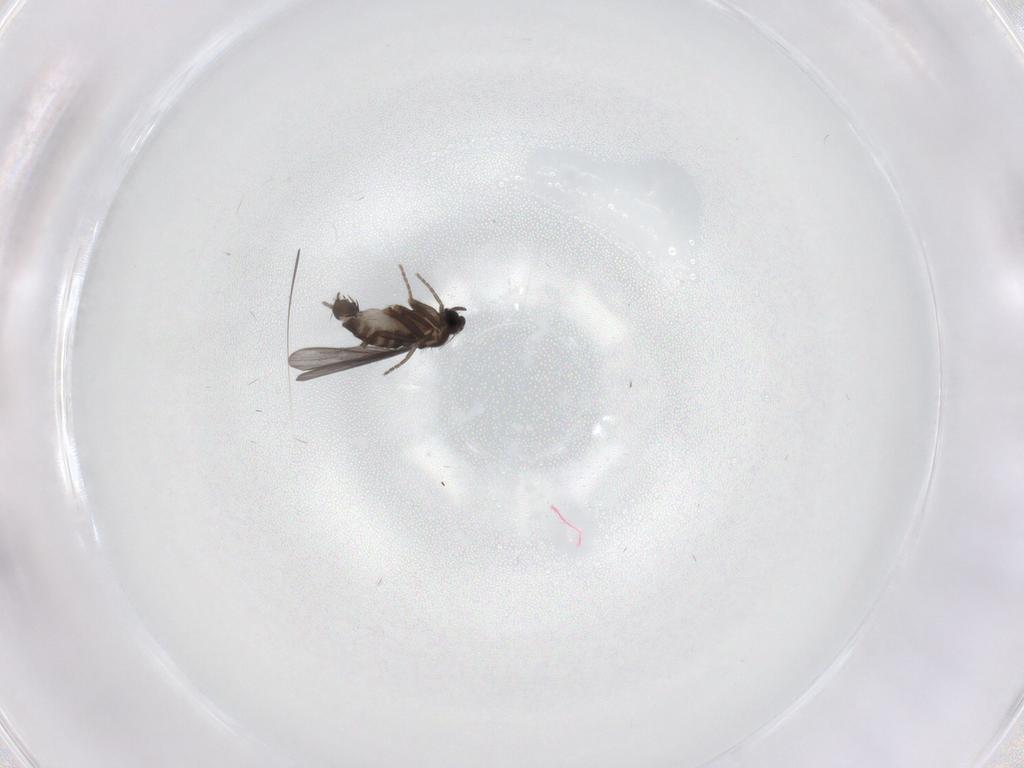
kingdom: Animalia
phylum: Arthropoda
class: Insecta
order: Diptera
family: Phoridae
